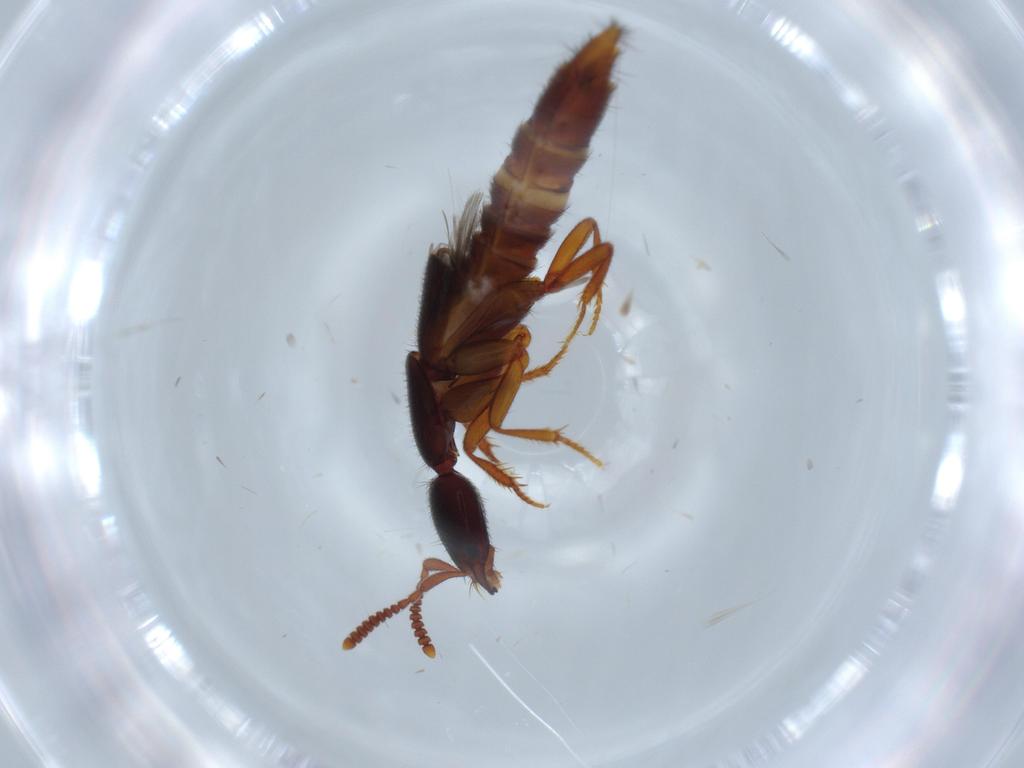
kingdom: Animalia
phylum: Arthropoda
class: Insecta
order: Coleoptera
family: Staphylinidae
